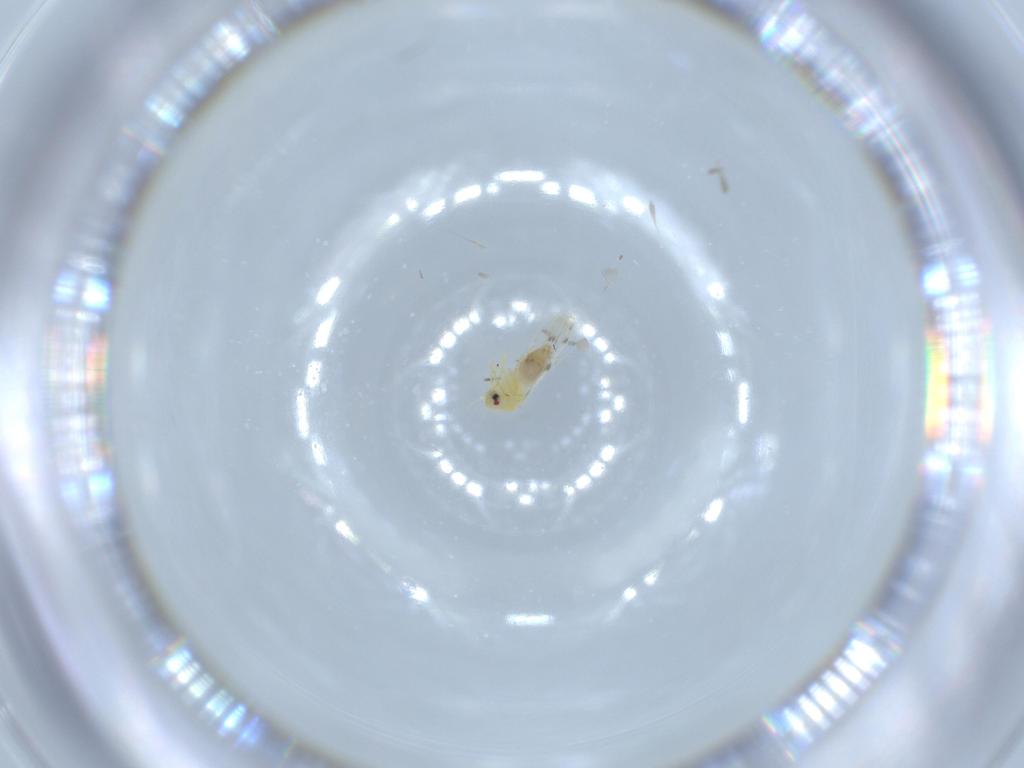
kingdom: Animalia
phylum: Arthropoda
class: Insecta
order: Hemiptera
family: Aleyrodidae
